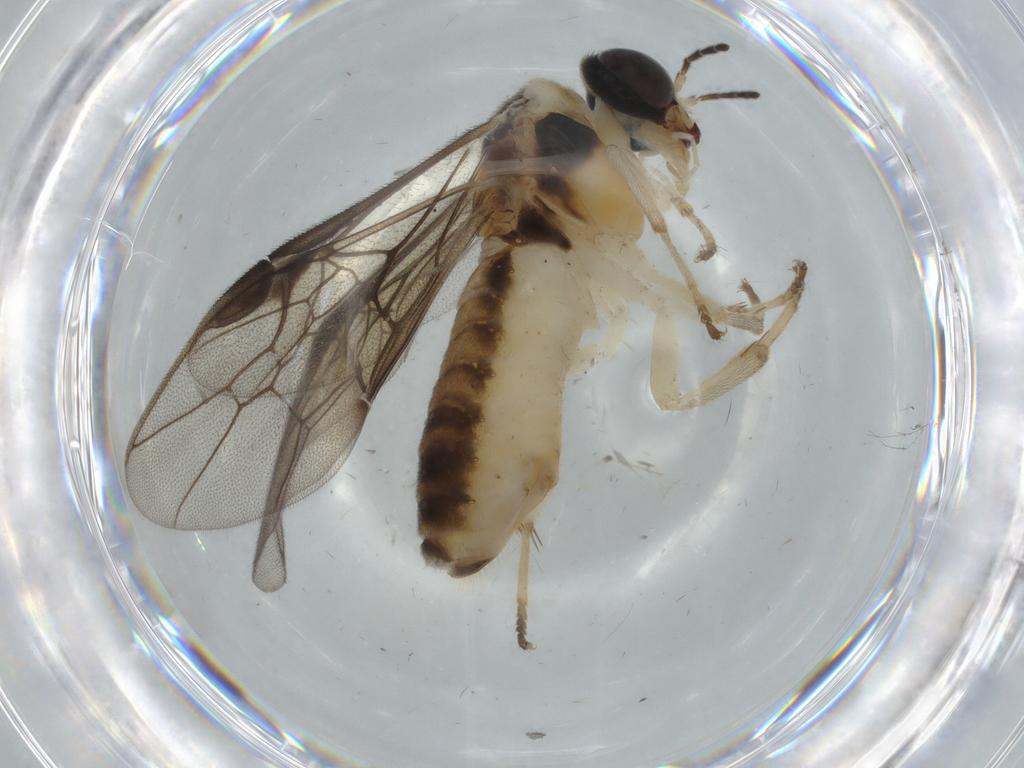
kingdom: Animalia
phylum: Arthropoda
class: Insecta
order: Hymenoptera
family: Pergidae
